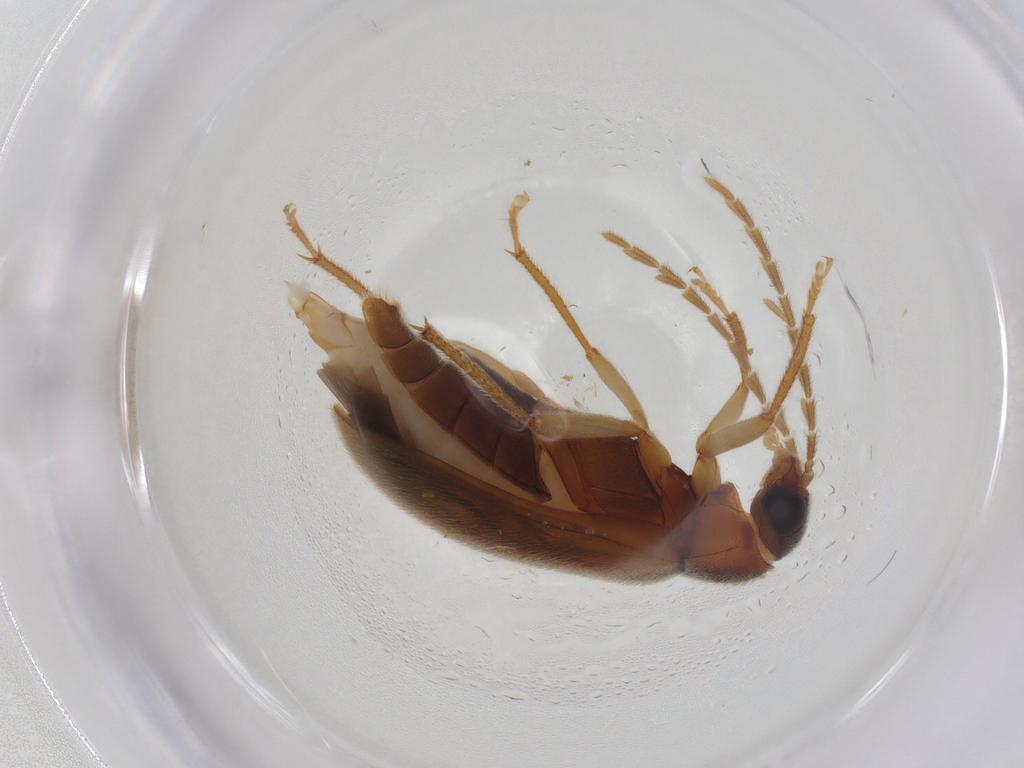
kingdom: Animalia
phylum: Arthropoda
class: Insecta
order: Coleoptera
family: Ptilodactylidae
